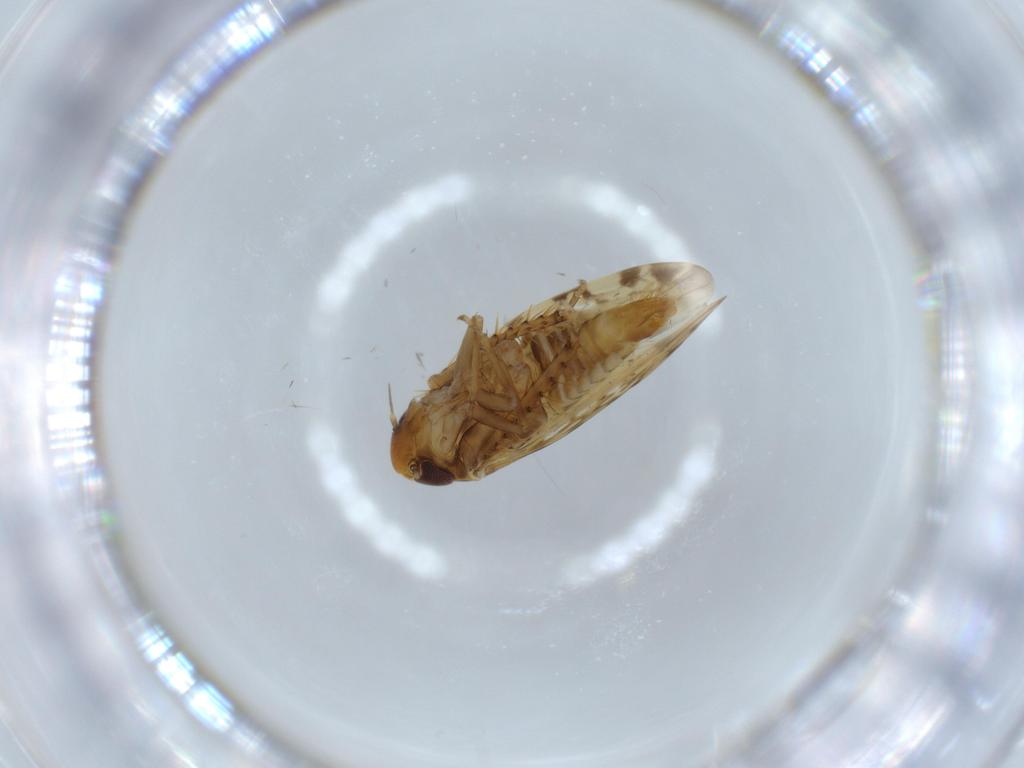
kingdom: Animalia
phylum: Arthropoda
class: Insecta
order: Hemiptera
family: Cicadellidae
